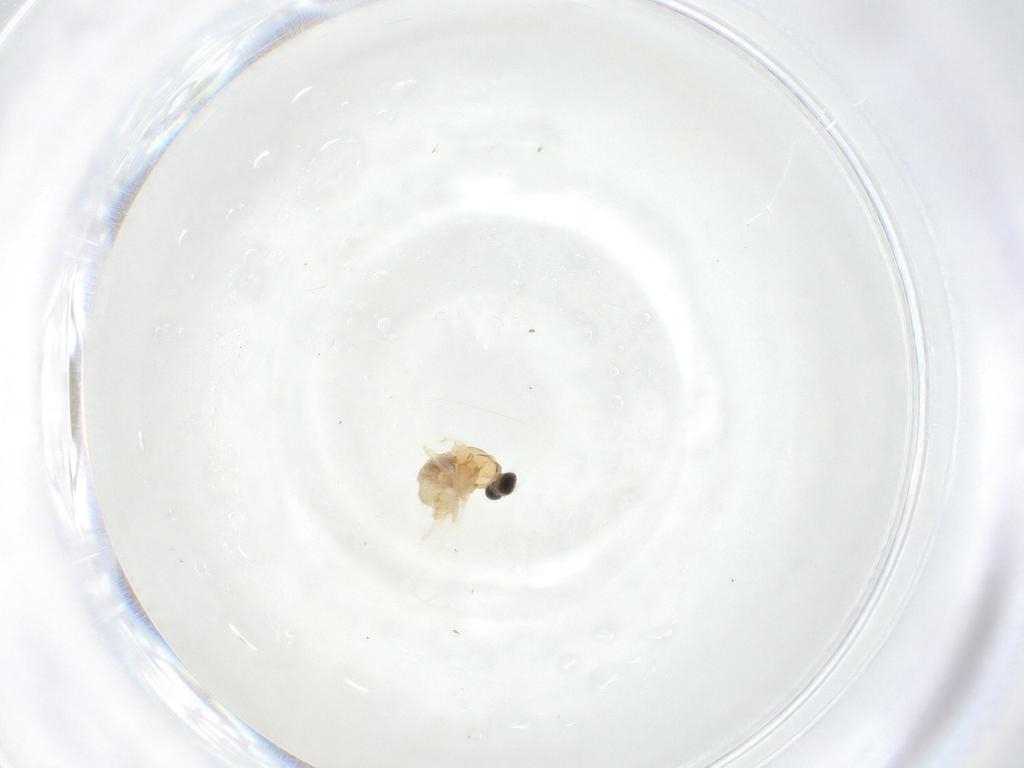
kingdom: Animalia
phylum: Arthropoda
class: Insecta
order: Diptera
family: Cecidomyiidae
